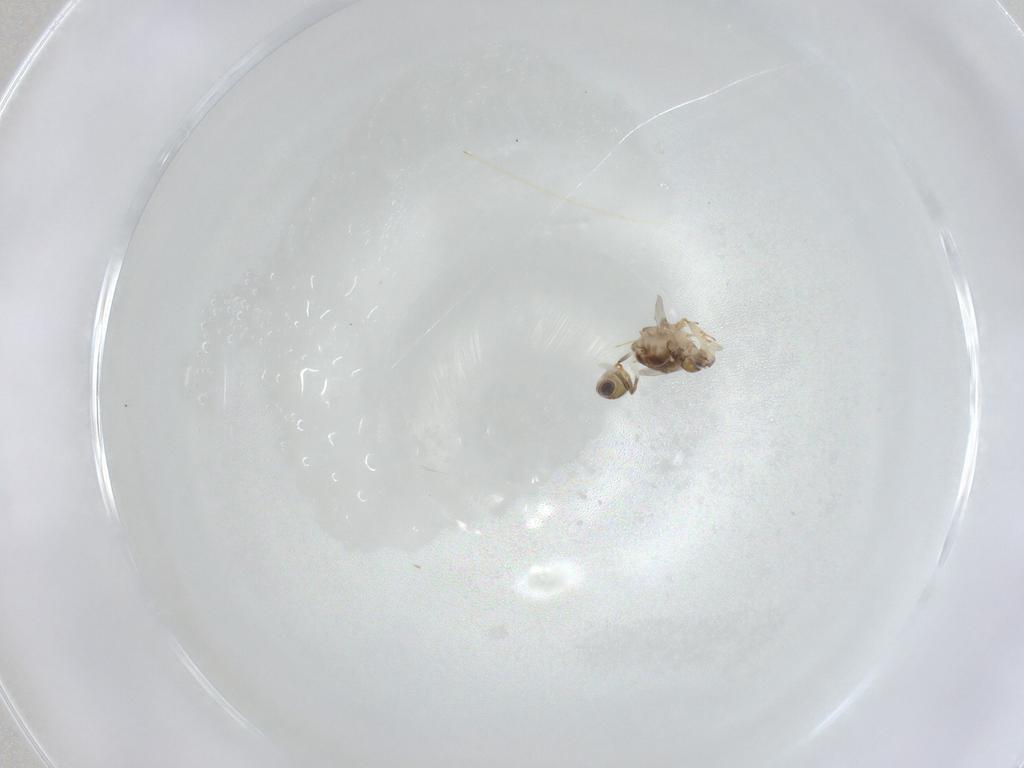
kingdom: Animalia
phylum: Arthropoda
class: Insecta
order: Hymenoptera
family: Encyrtidae
